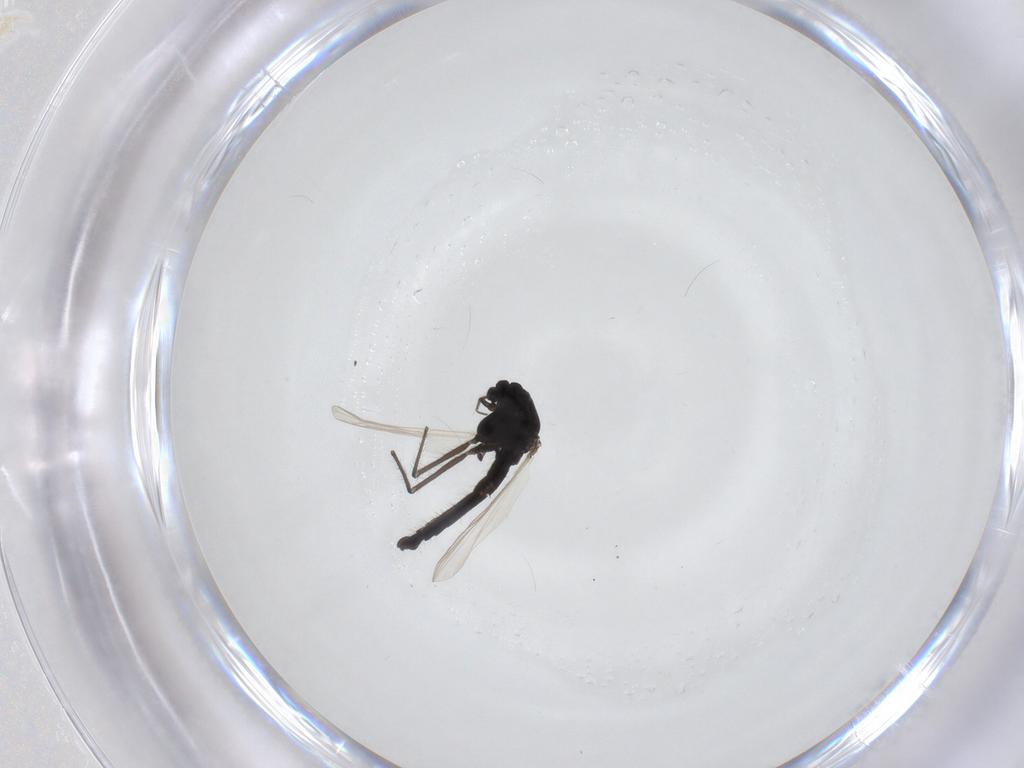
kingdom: Animalia
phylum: Arthropoda
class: Insecta
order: Diptera
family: Chironomidae
